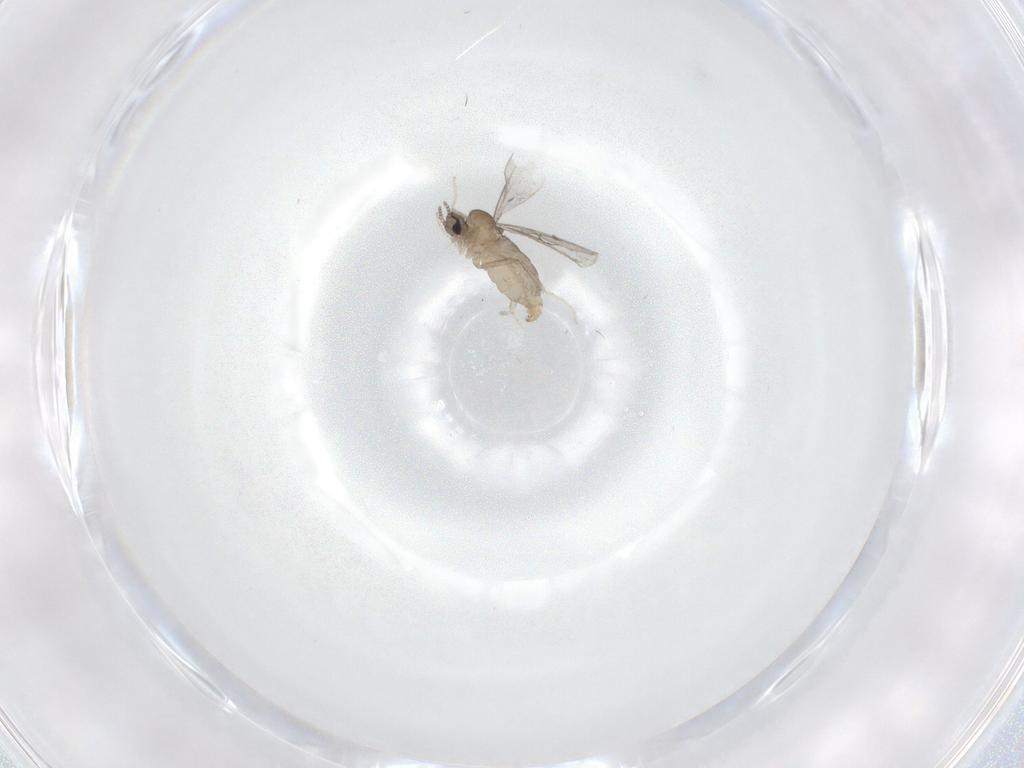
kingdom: Animalia
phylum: Arthropoda
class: Insecta
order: Diptera
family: Cecidomyiidae
